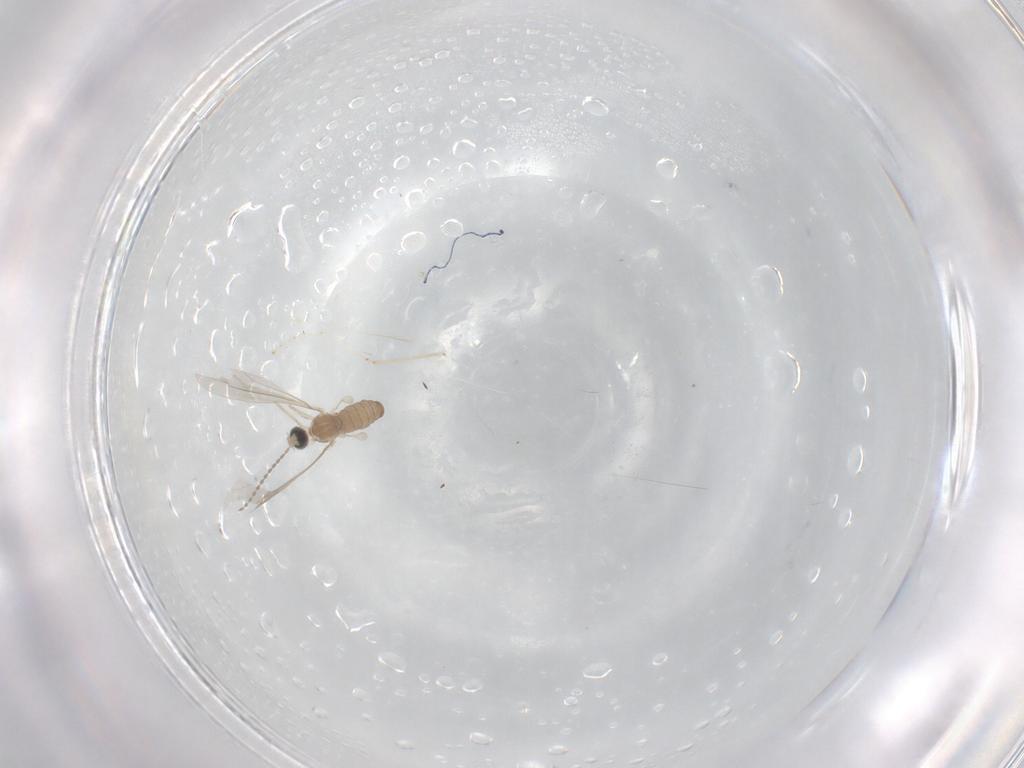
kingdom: Animalia
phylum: Arthropoda
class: Insecta
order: Diptera
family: Cecidomyiidae
